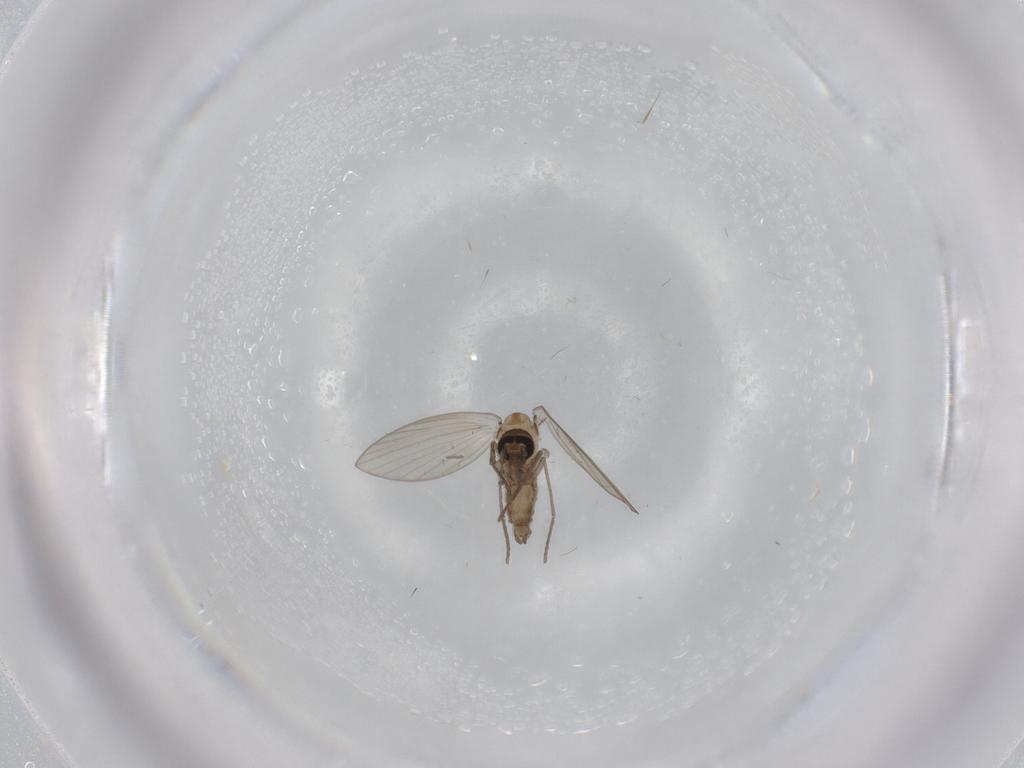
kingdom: Animalia
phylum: Arthropoda
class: Insecta
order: Diptera
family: Psychodidae
